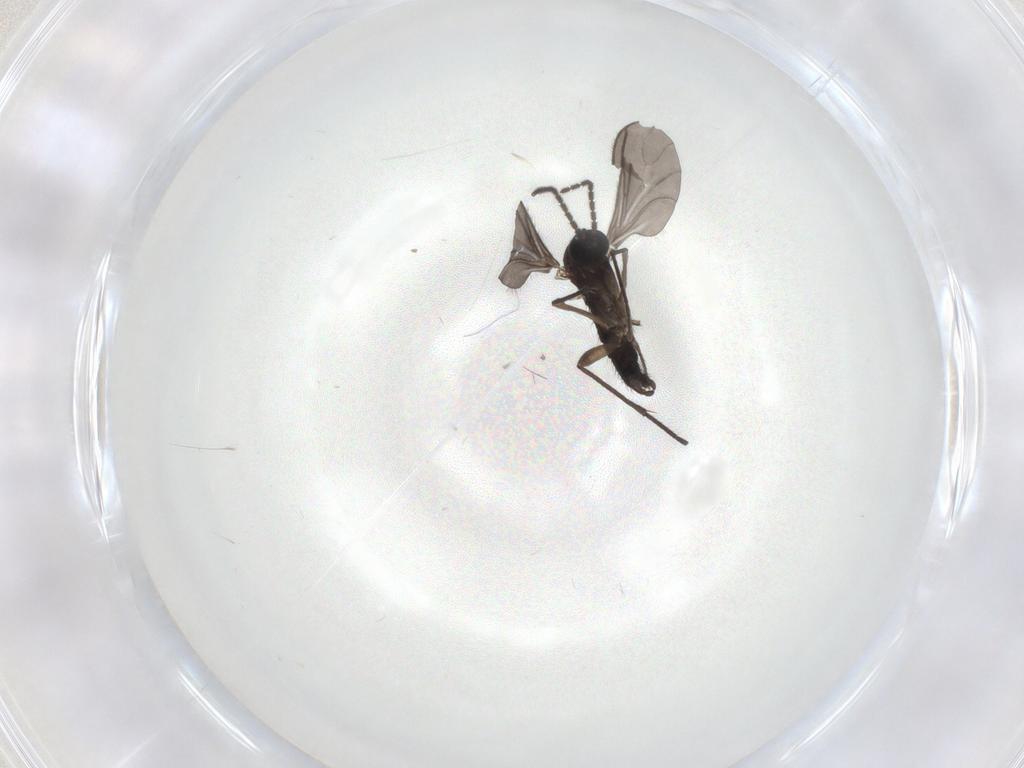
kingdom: Animalia
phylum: Arthropoda
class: Insecta
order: Diptera
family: Sciaridae
